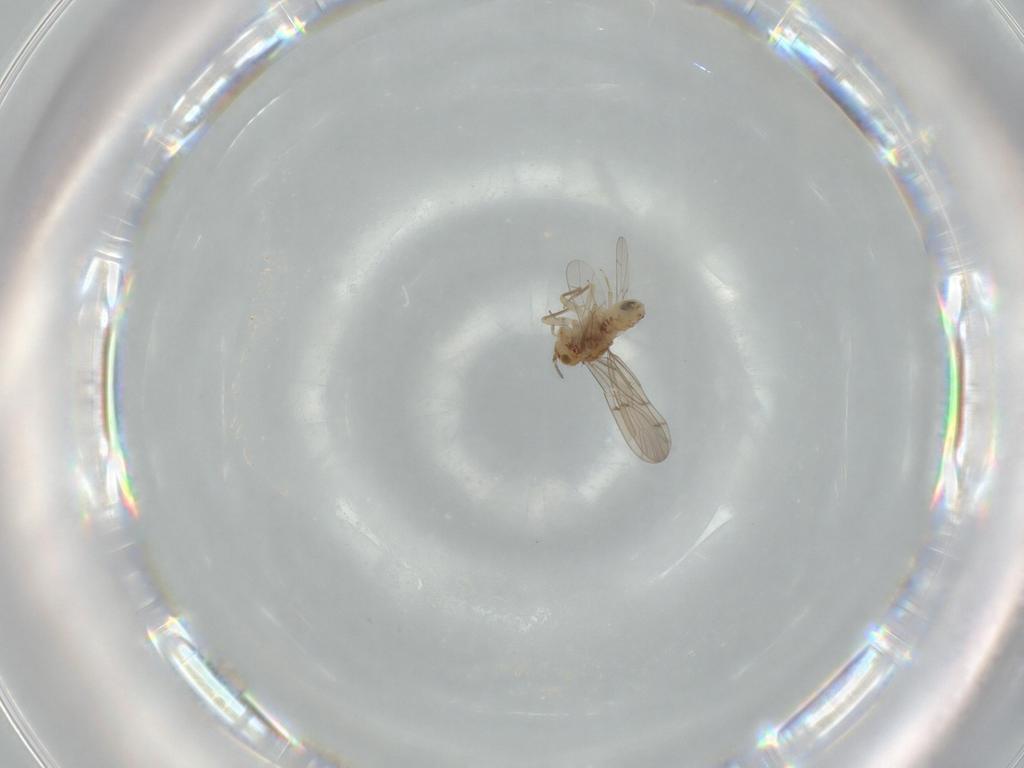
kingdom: Animalia
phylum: Arthropoda
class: Insecta
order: Psocodea
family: Ectopsocidae
